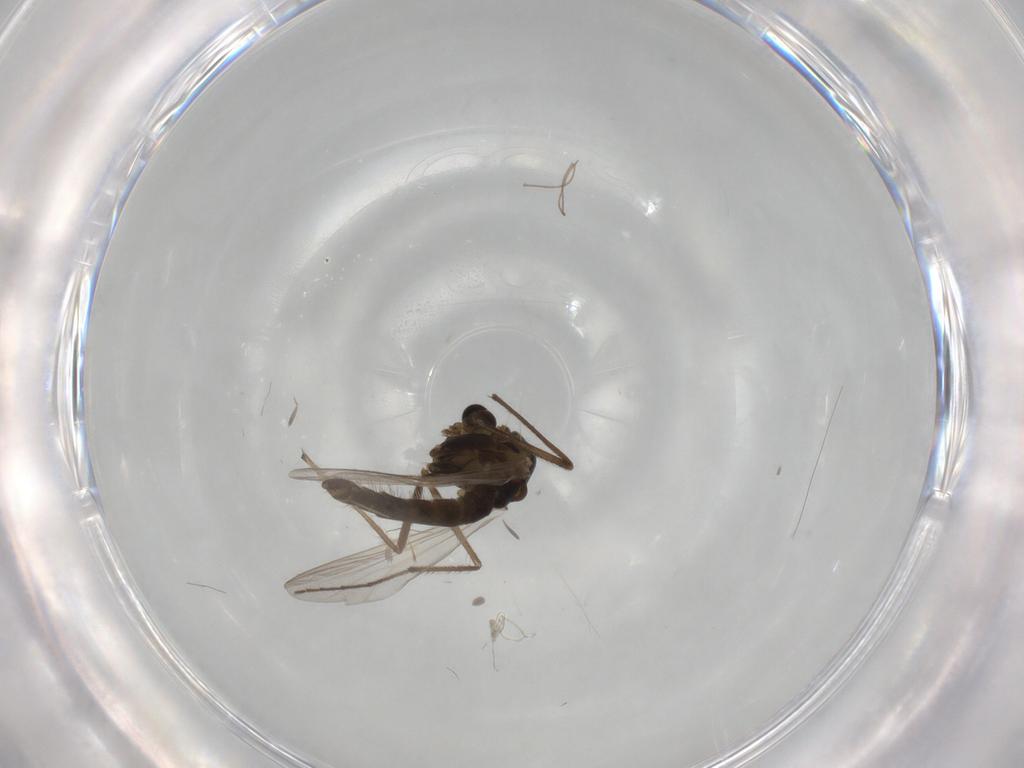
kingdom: Animalia
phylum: Arthropoda
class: Insecta
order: Diptera
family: Chironomidae
